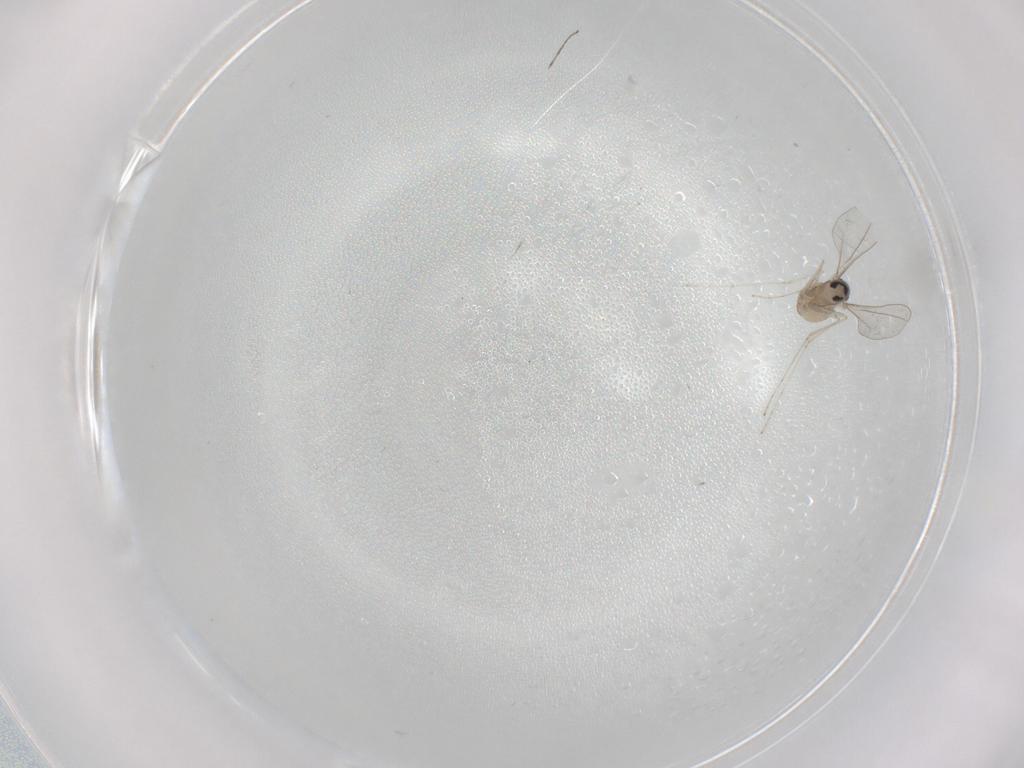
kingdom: Animalia
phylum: Arthropoda
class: Insecta
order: Diptera
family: Cecidomyiidae
